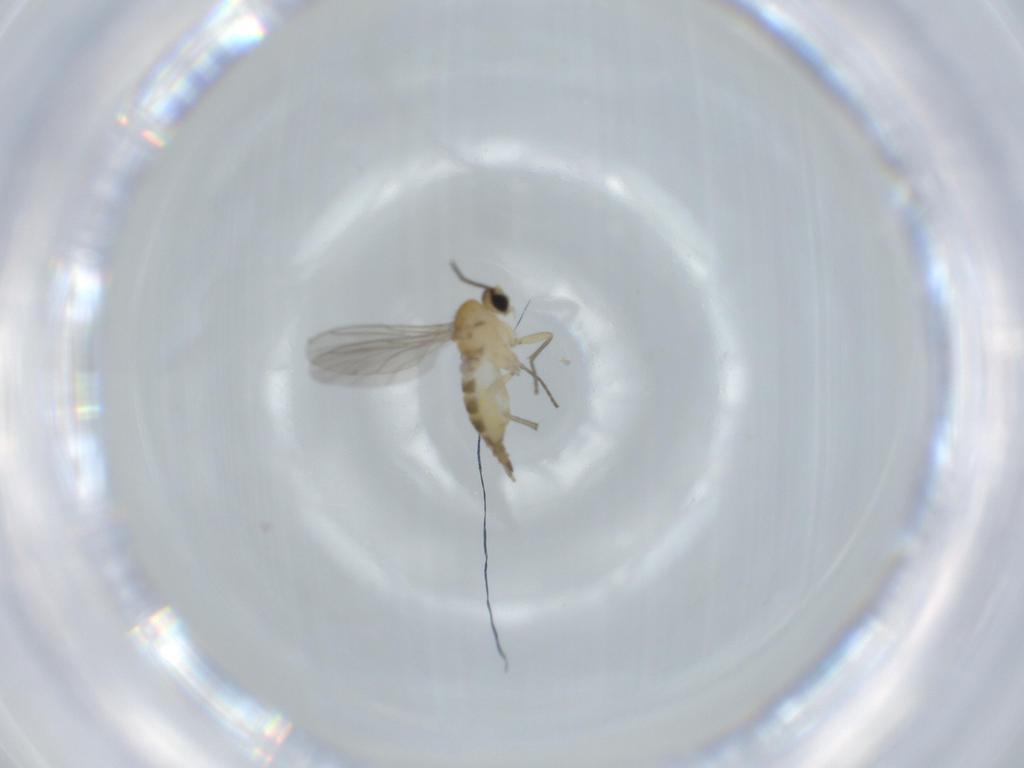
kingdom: Animalia
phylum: Arthropoda
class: Insecta
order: Diptera
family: Sciaridae
